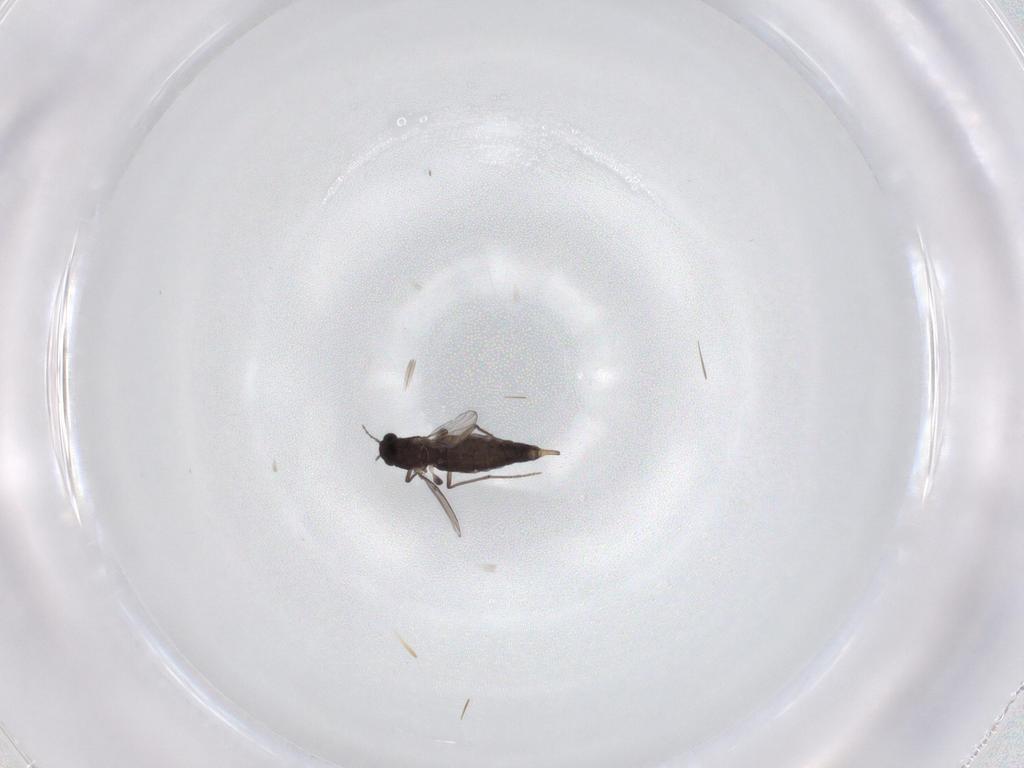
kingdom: Animalia
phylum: Arthropoda
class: Insecta
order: Diptera
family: Chironomidae
